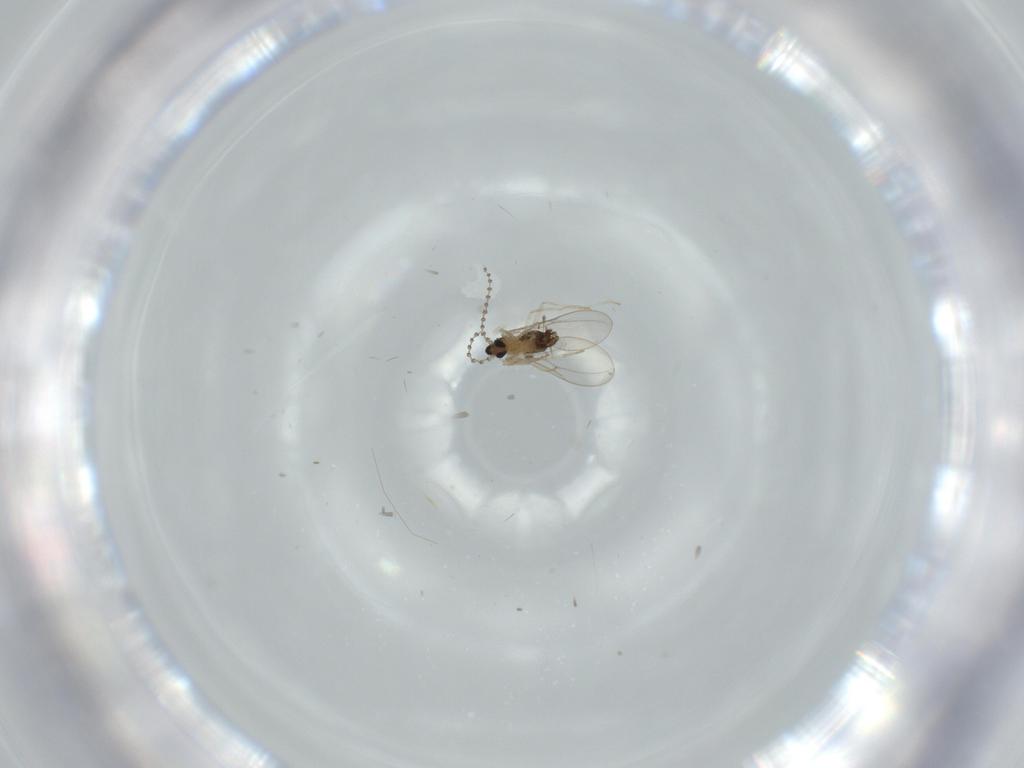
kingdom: Animalia
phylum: Arthropoda
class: Insecta
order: Diptera
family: Cecidomyiidae
